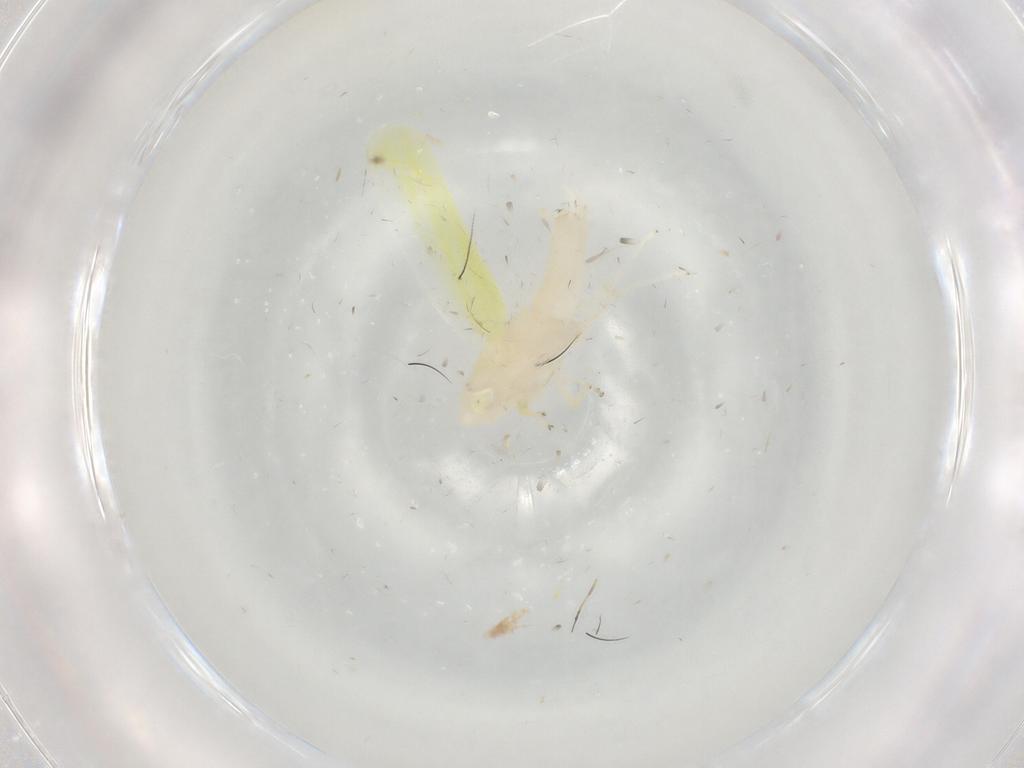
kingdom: Animalia
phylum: Arthropoda
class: Insecta
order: Hemiptera
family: Cicadellidae
